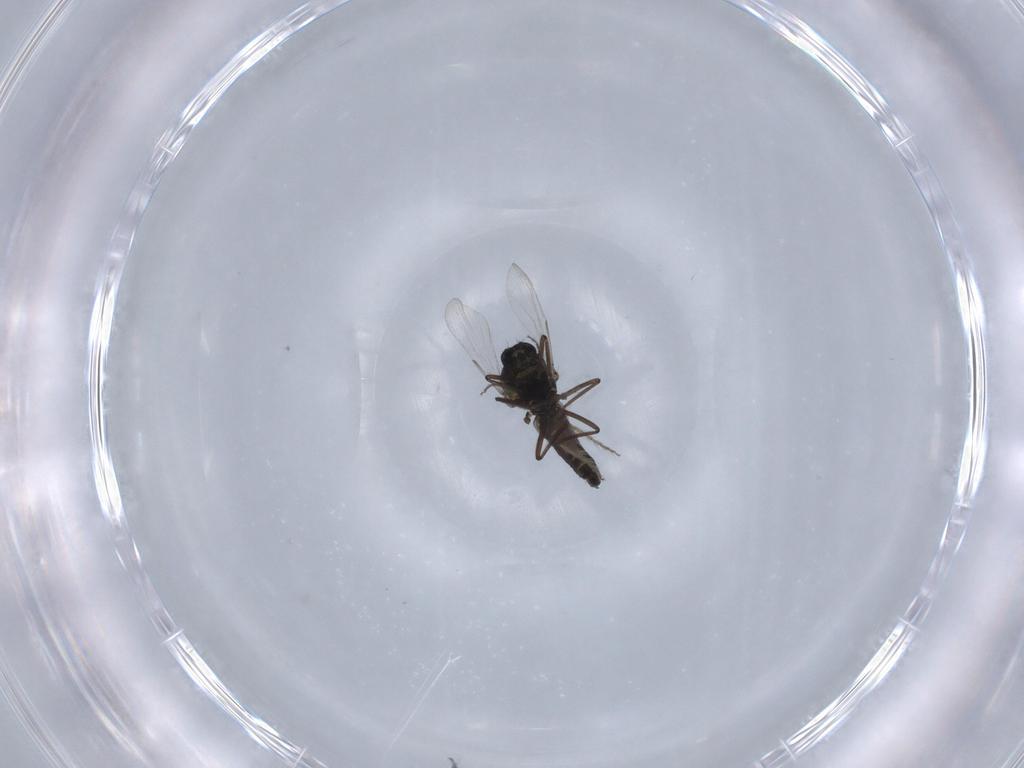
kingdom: Animalia
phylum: Arthropoda
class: Insecta
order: Diptera
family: Ceratopogonidae
